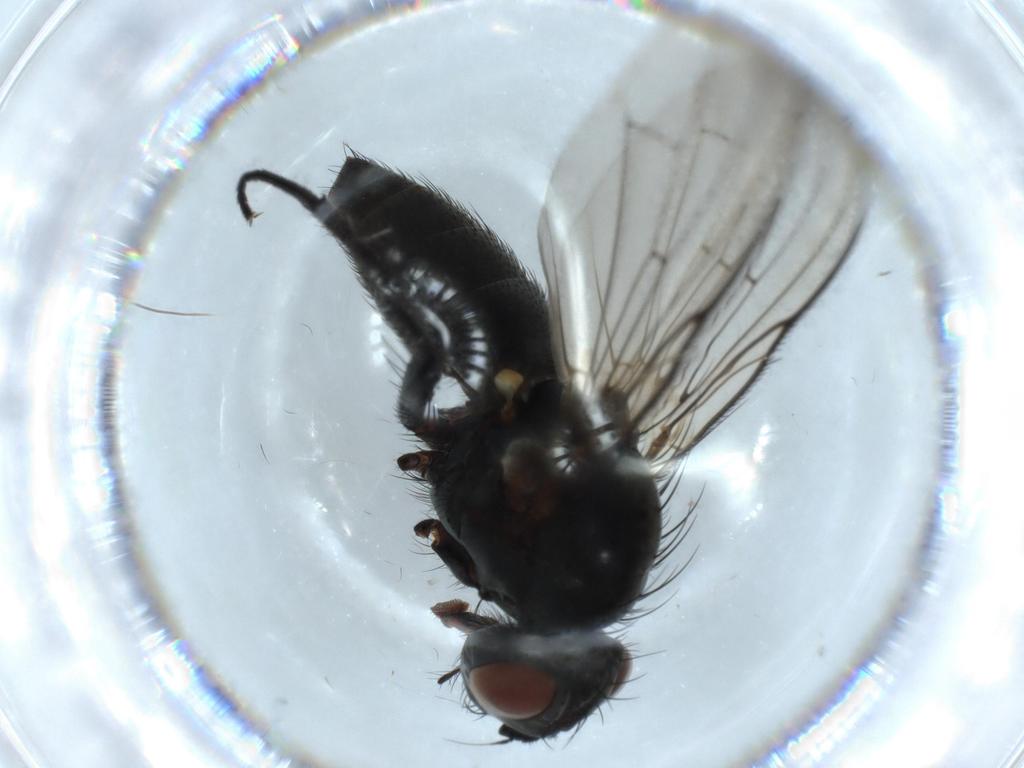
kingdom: Animalia
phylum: Arthropoda
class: Insecta
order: Diptera
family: Anthomyiidae
